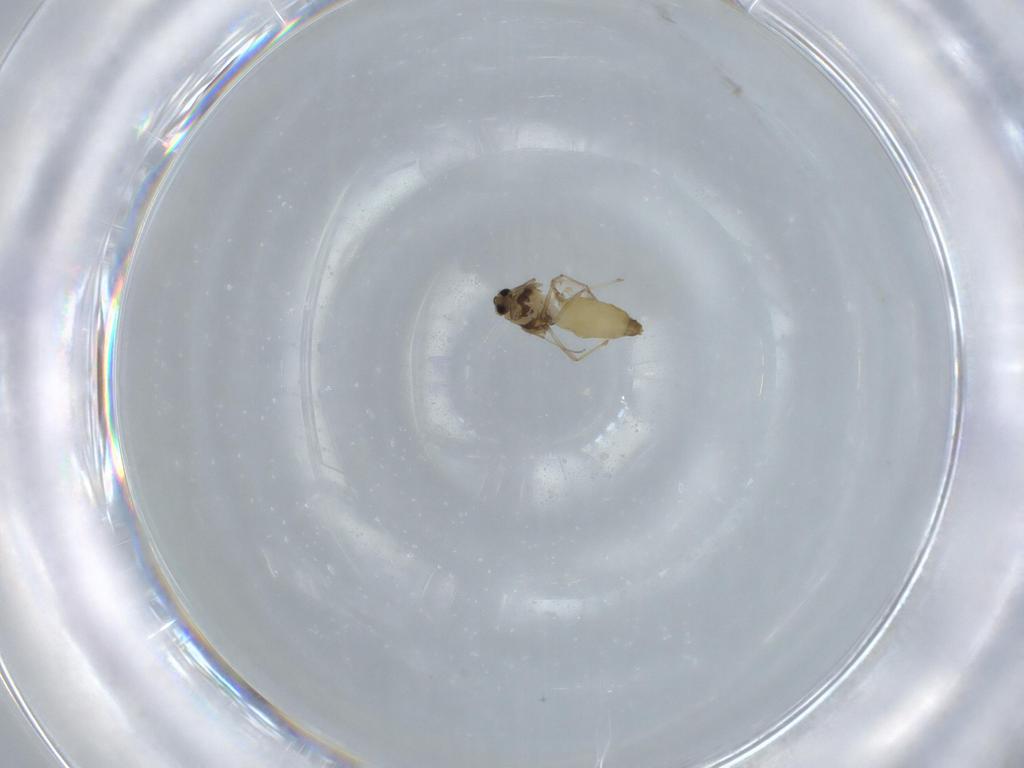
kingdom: Animalia
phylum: Arthropoda
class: Insecta
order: Diptera
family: Chironomidae
